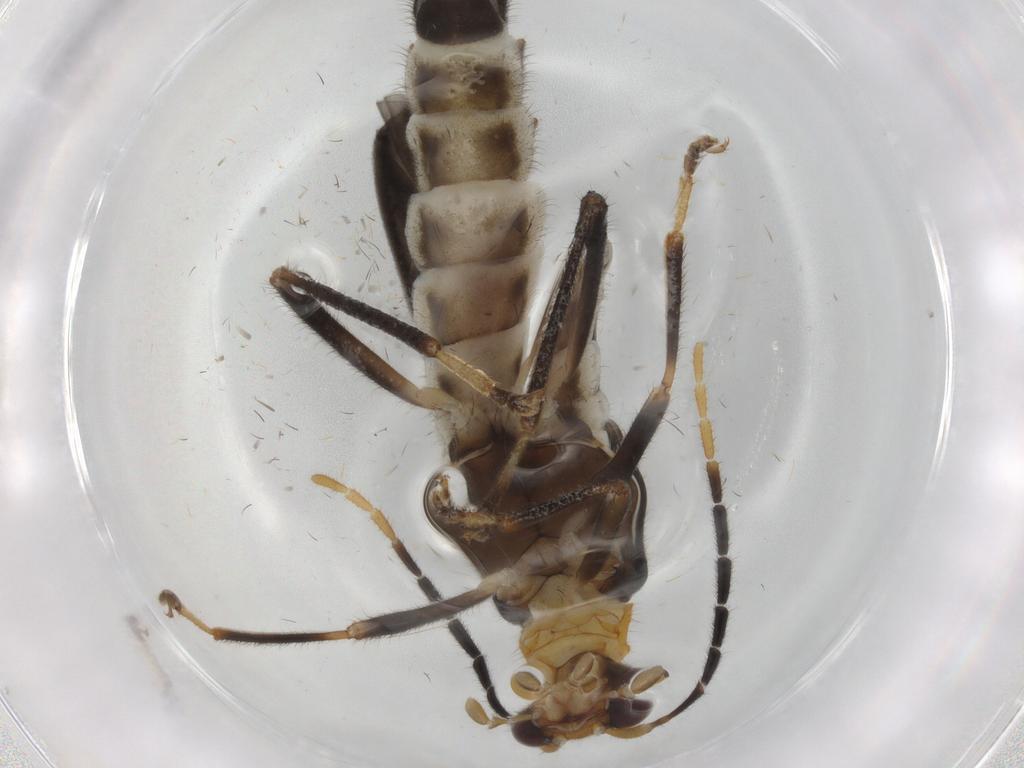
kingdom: Animalia
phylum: Arthropoda
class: Insecta
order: Coleoptera
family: Cantharidae
